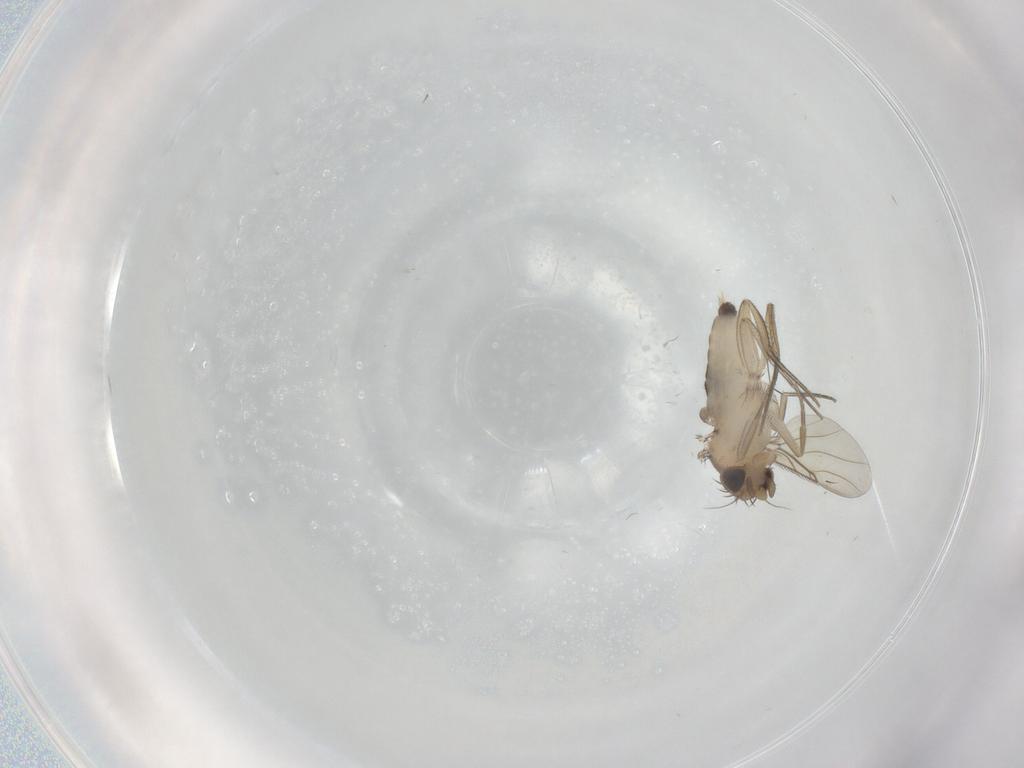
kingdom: Animalia
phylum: Arthropoda
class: Insecta
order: Diptera
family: Phoridae
